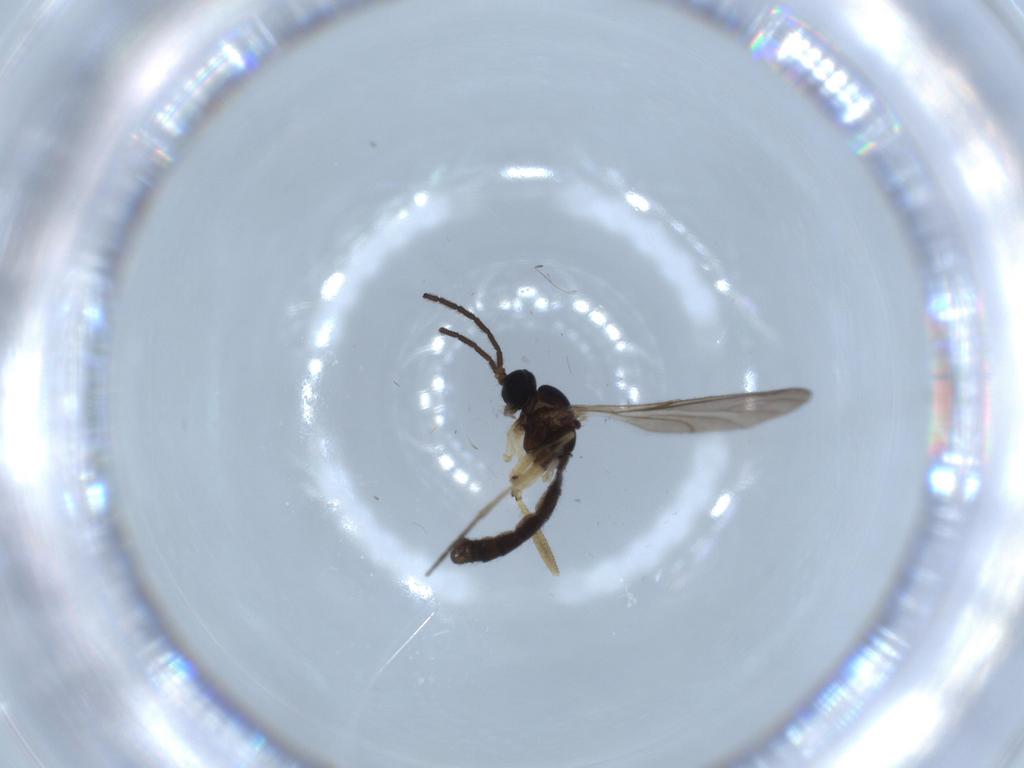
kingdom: Animalia
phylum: Arthropoda
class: Insecta
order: Diptera
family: Sciaridae
